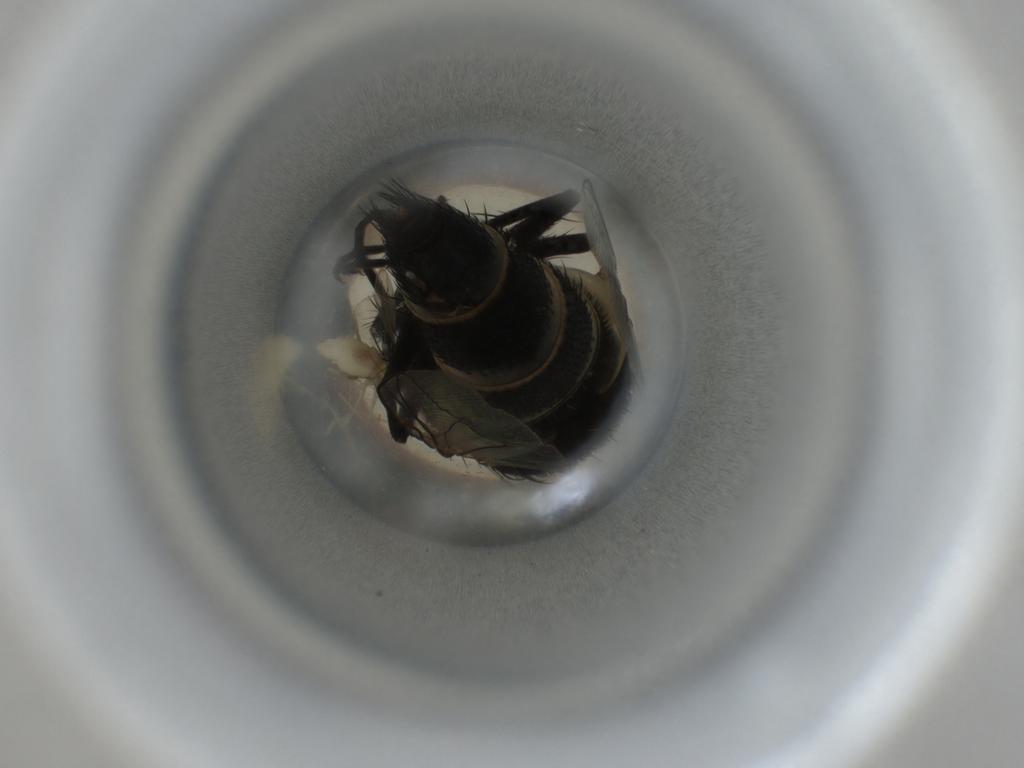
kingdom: Animalia
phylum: Arthropoda
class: Insecta
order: Diptera
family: Sarcophagidae
